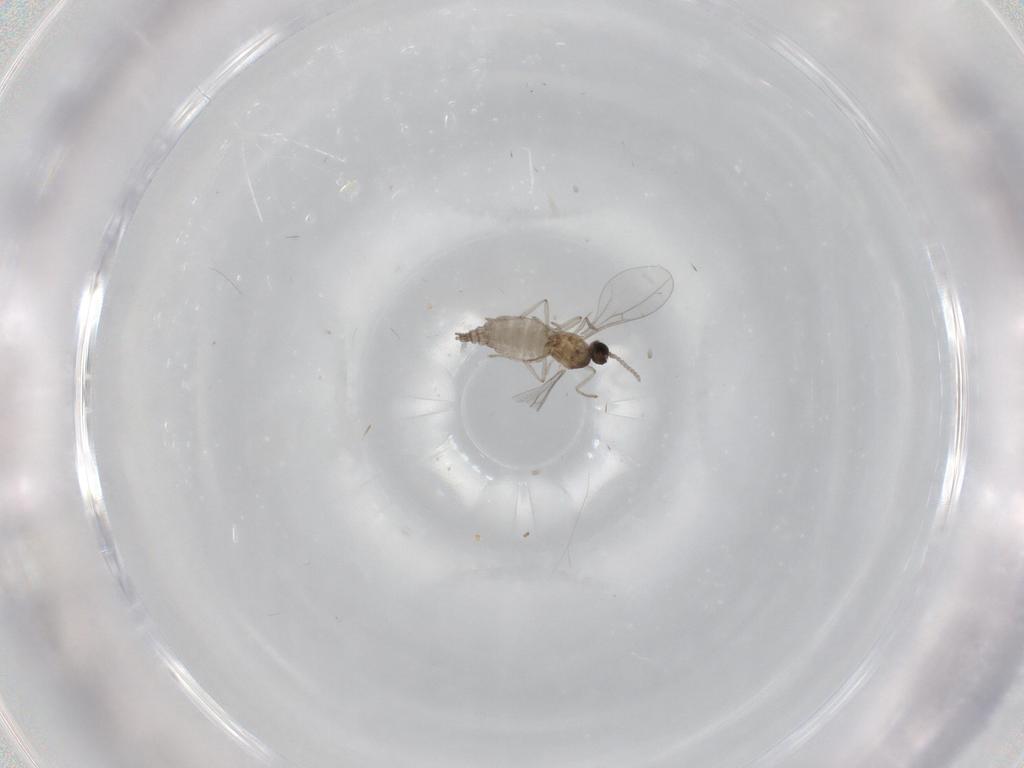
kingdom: Animalia
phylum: Arthropoda
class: Insecta
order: Diptera
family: Cecidomyiidae
